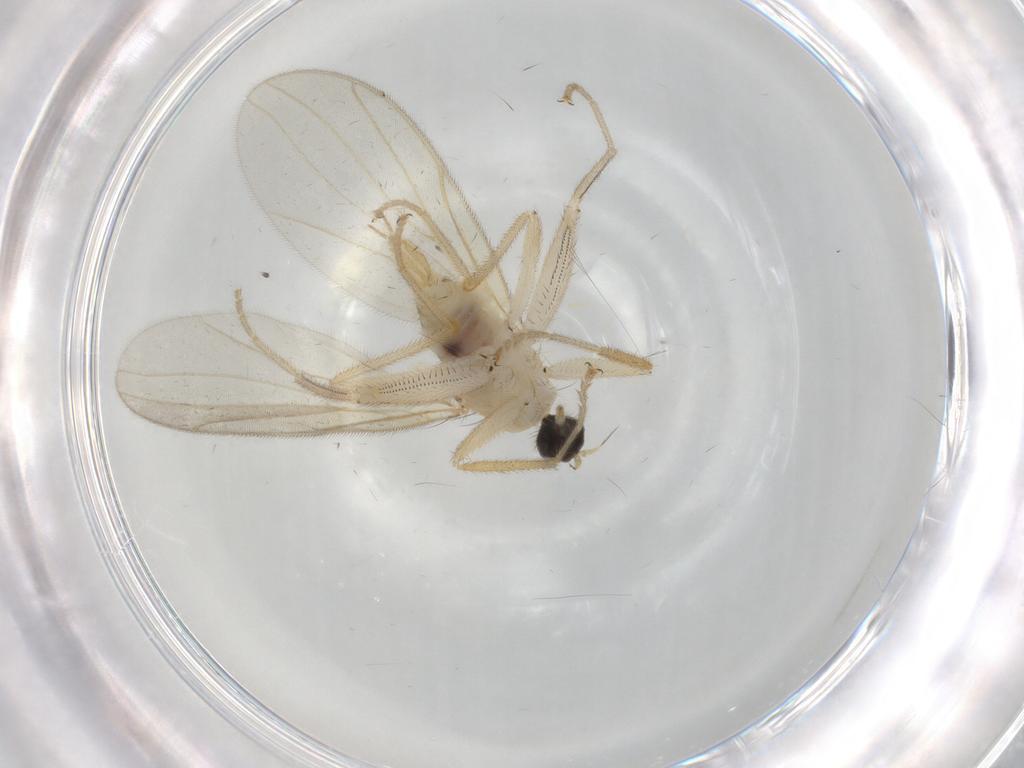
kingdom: Animalia
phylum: Arthropoda
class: Insecta
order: Diptera
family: Hybotidae
